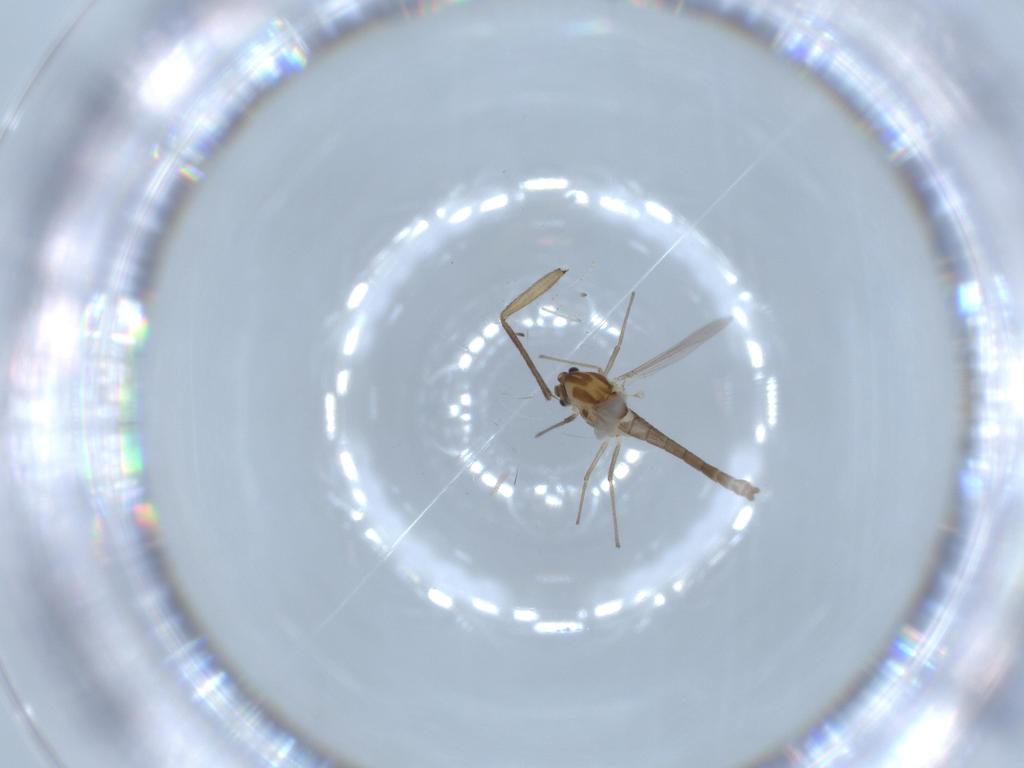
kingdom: Animalia
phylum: Arthropoda
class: Insecta
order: Diptera
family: Chironomidae
